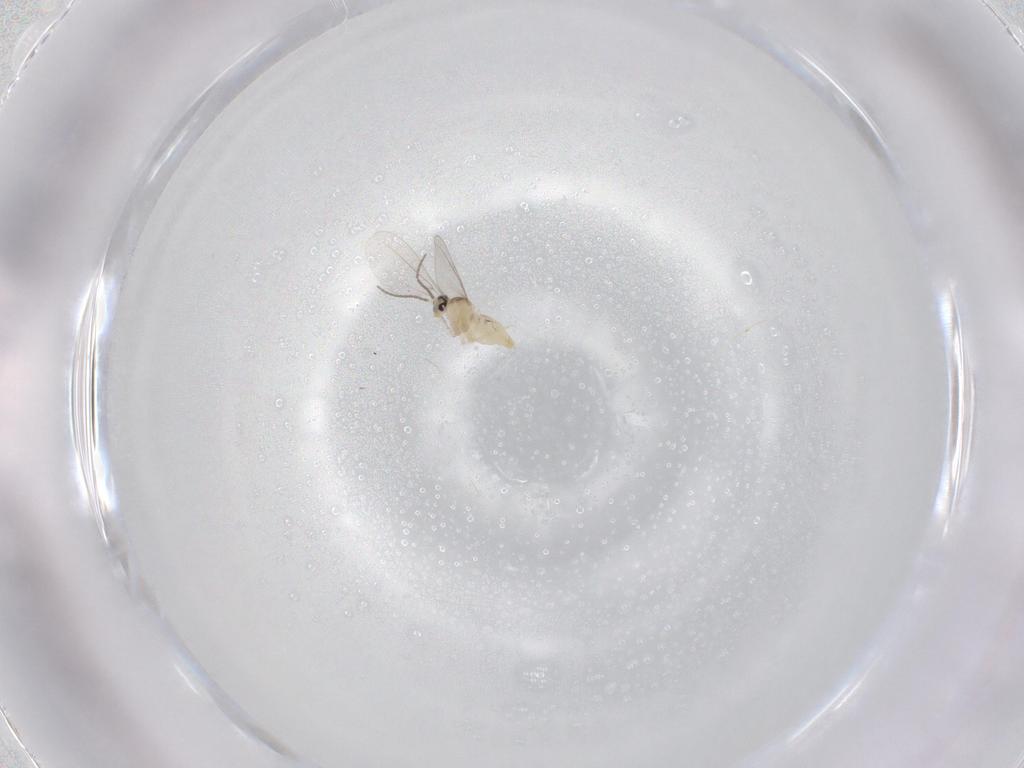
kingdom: Animalia
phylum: Arthropoda
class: Insecta
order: Diptera
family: Cecidomyiidae
